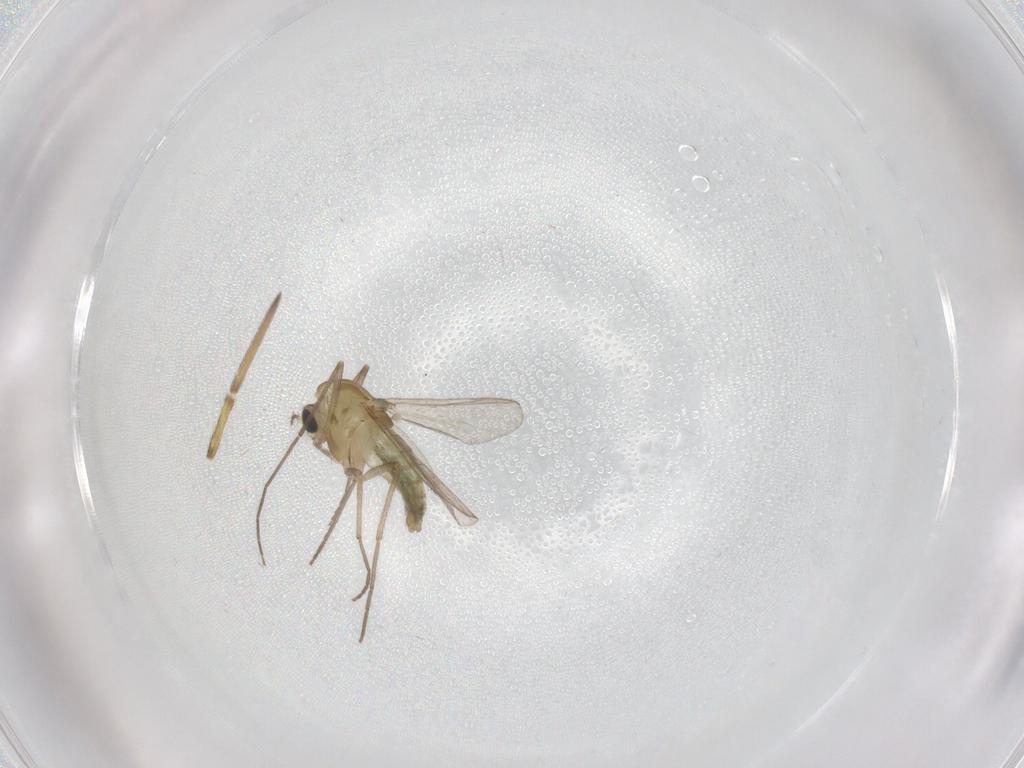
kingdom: Animalia
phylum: Arthropoda
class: Insecta
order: Diptera
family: Chironomidae
